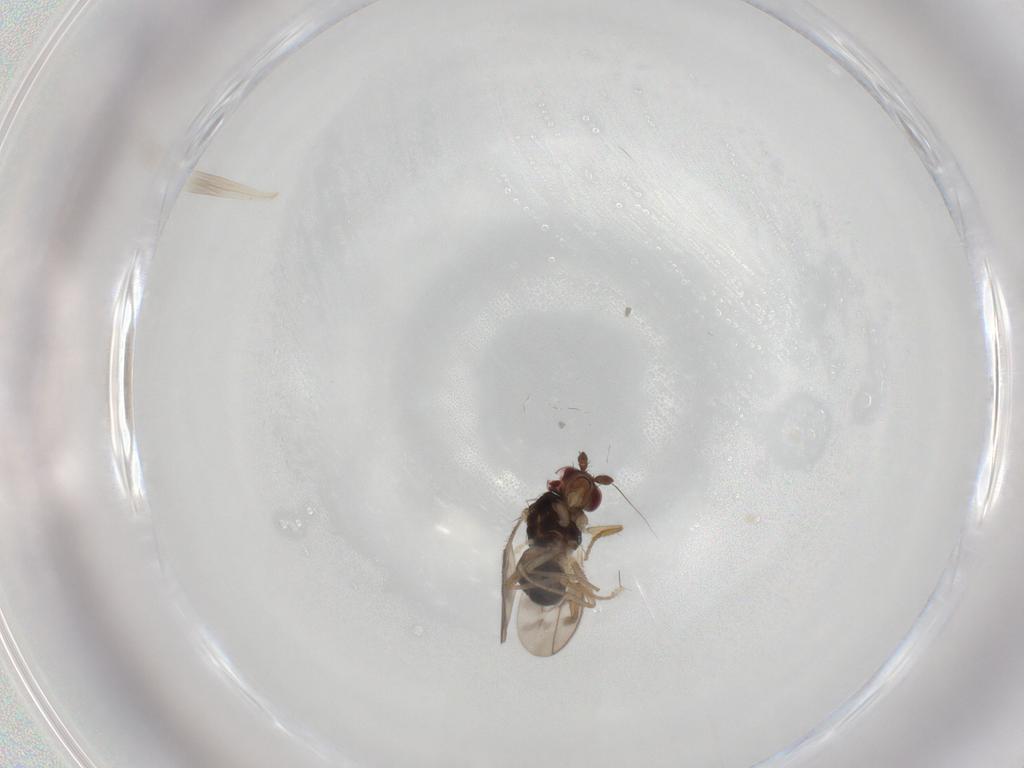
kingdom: Animalia
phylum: Arthropoda
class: Insecta
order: Diptera
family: Sphaeroceridae
